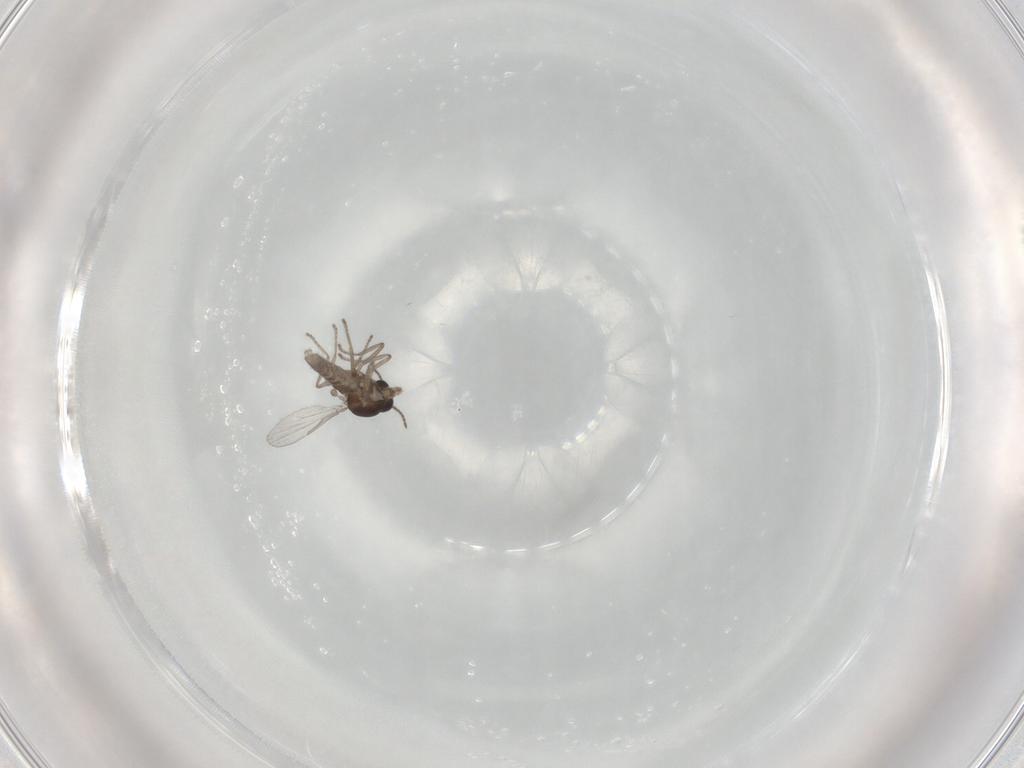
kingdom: Animalia
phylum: Arthropoda
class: Insecta
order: Diptera
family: Ceratopogonidae
